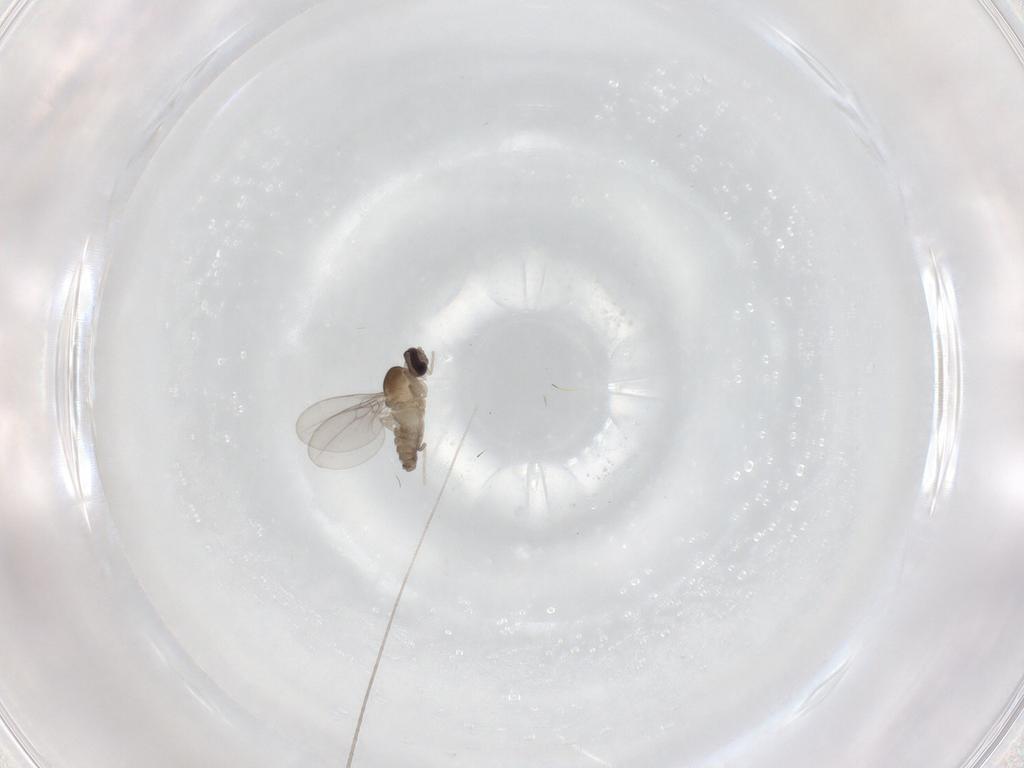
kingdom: Animalia
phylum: Arthropoda
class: Insecta
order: Diptera
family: Cecidomyiidae
